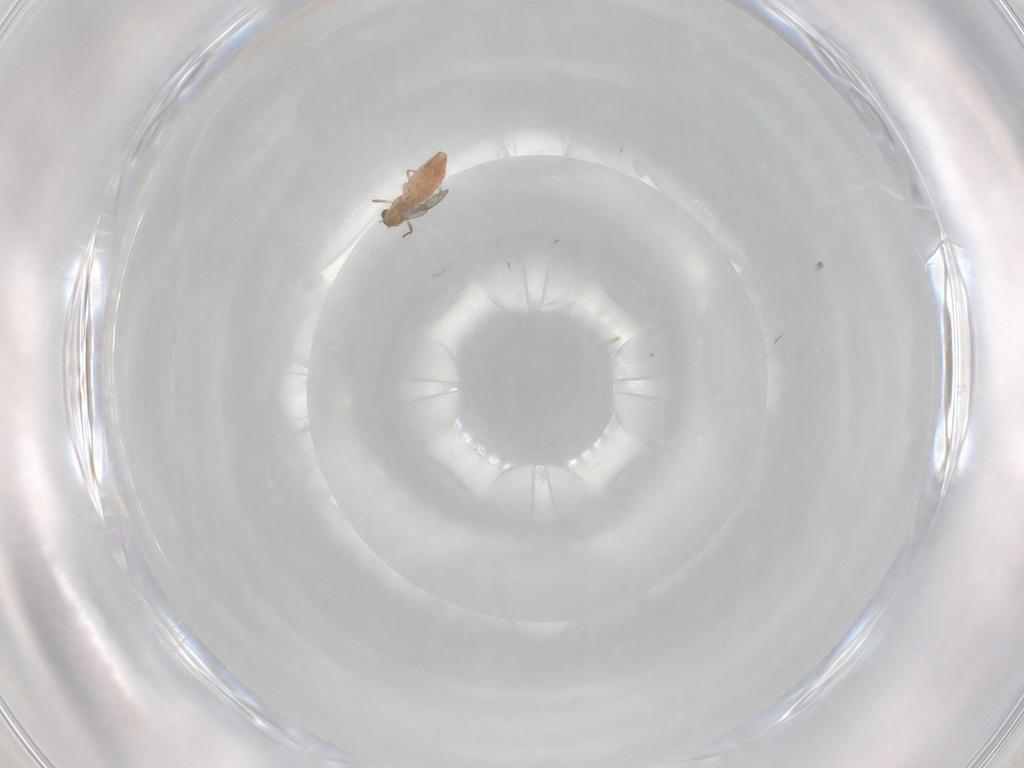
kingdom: Animalia
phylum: Arthropoda
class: Insecta
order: Diptera
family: Chironomidae
